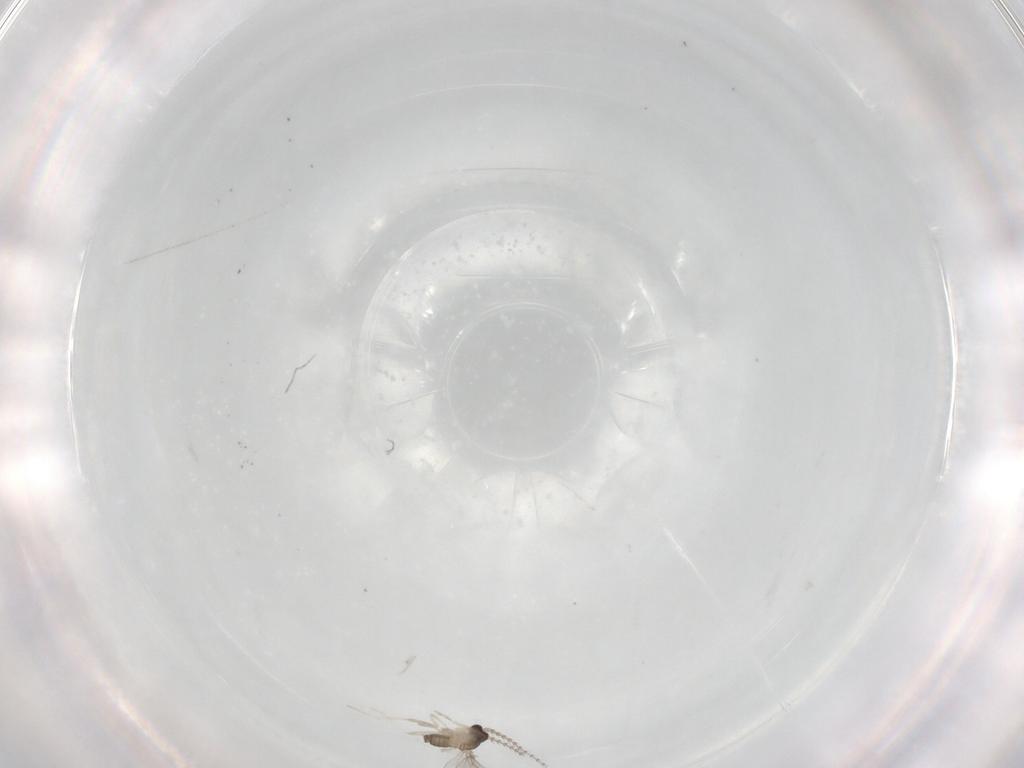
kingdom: Animalia
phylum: Arthropoda
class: Insecta
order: Diptera
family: Cecidomyiidae
